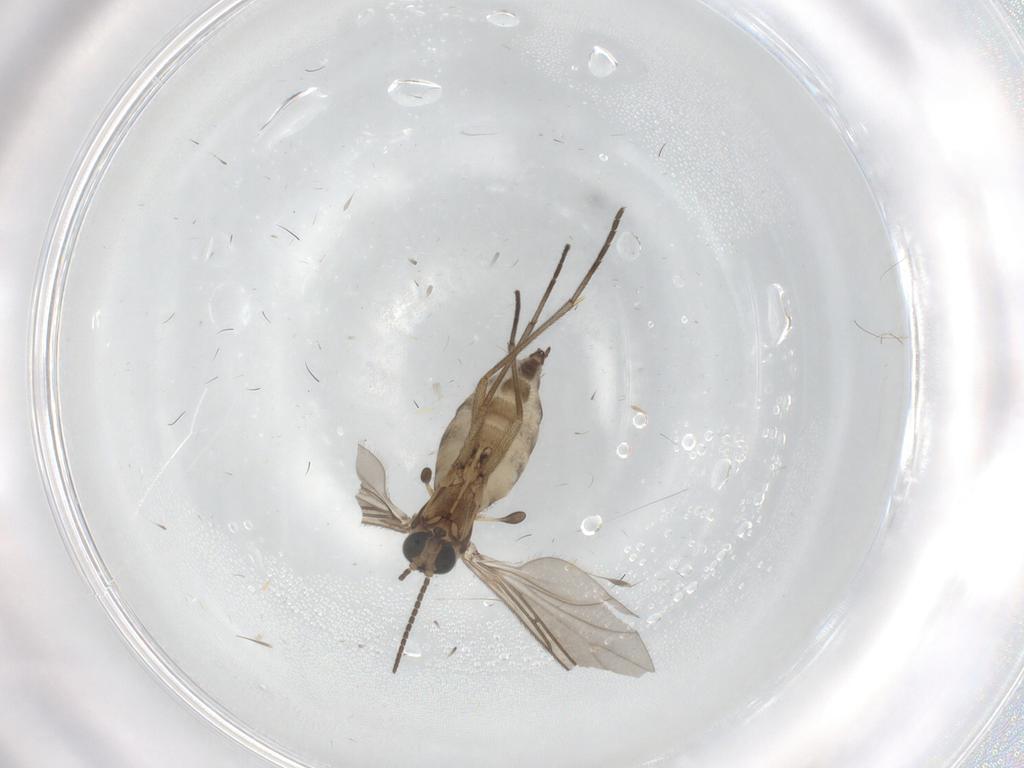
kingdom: Animalia
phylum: Arthropoda
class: Insecta
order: Diptera
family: Sciaridae
